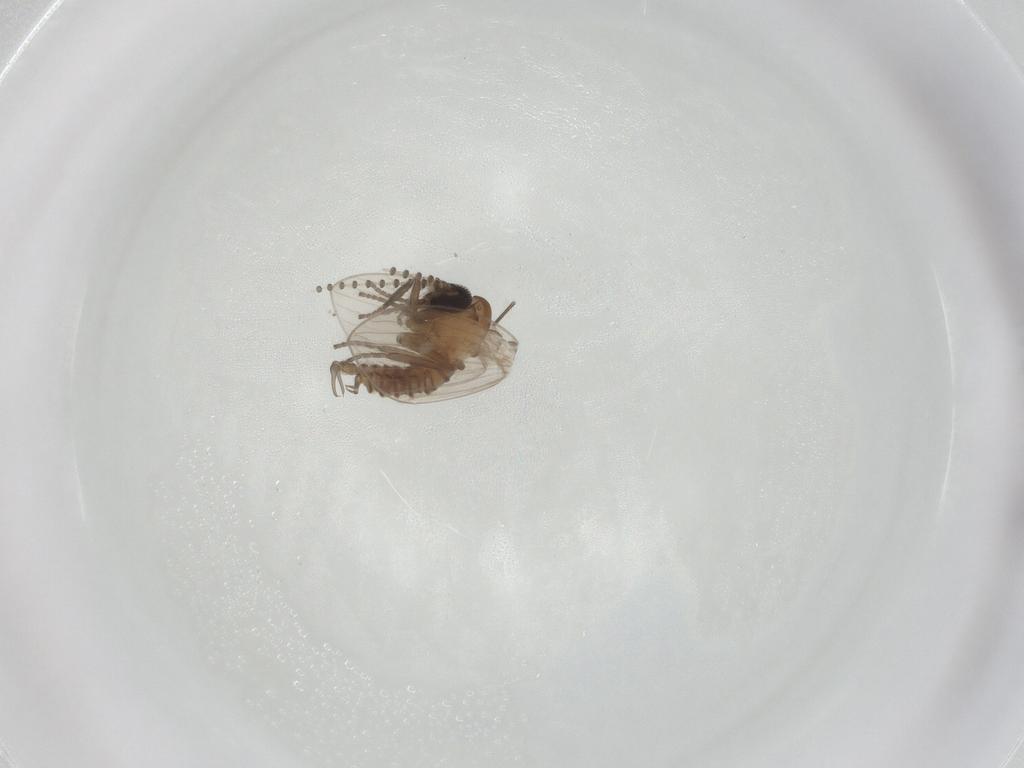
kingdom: Animalia
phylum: Arthropoda
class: Insecta
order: Diptera
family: Psychodidae
